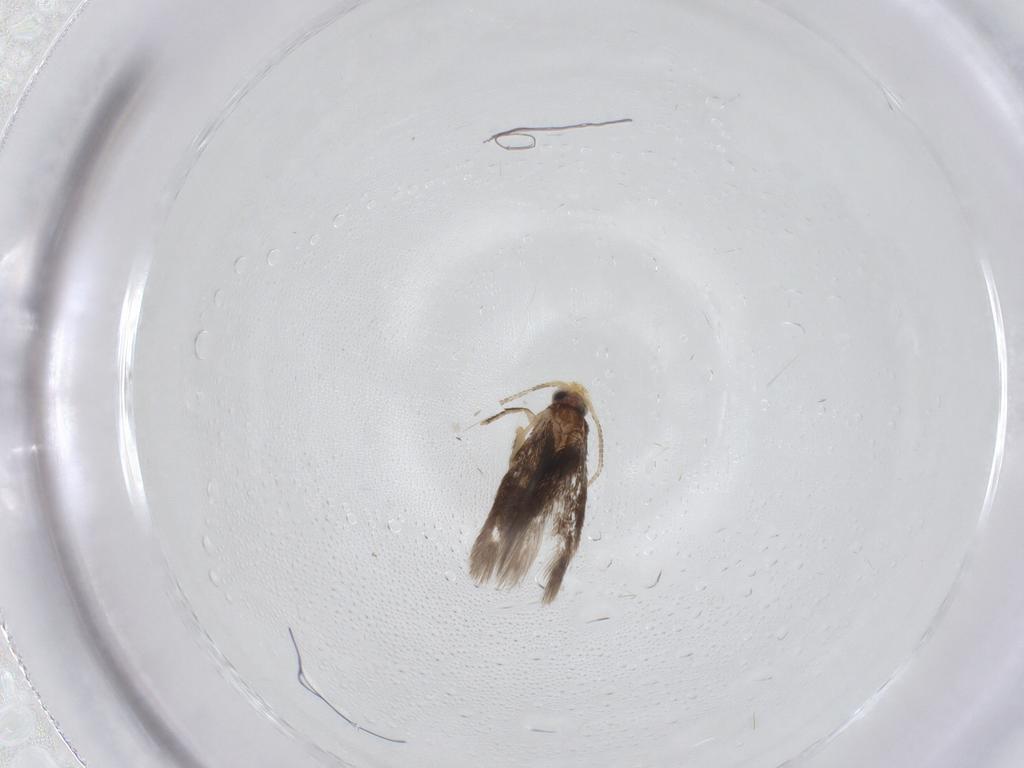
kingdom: Animalia
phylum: Arthropoda
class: Insecta
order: Lepidoptera
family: Nepticulidae
